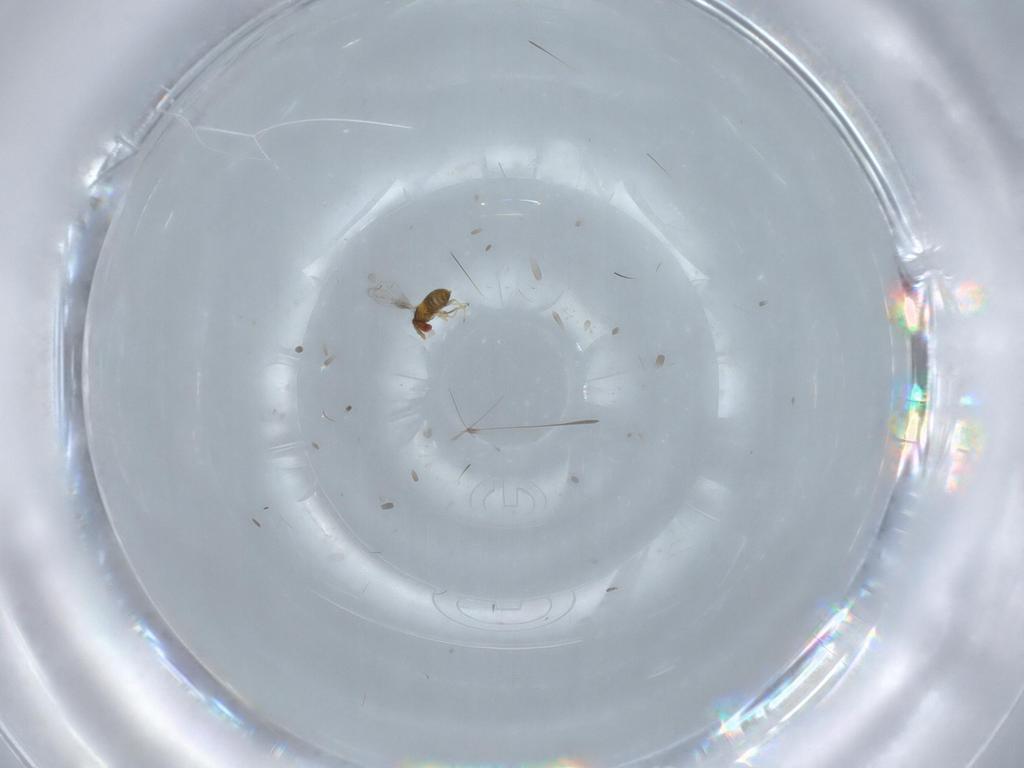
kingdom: Animalia
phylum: Arthropoda
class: Insecta
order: Hymenoptera
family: Trichogrammatidae
